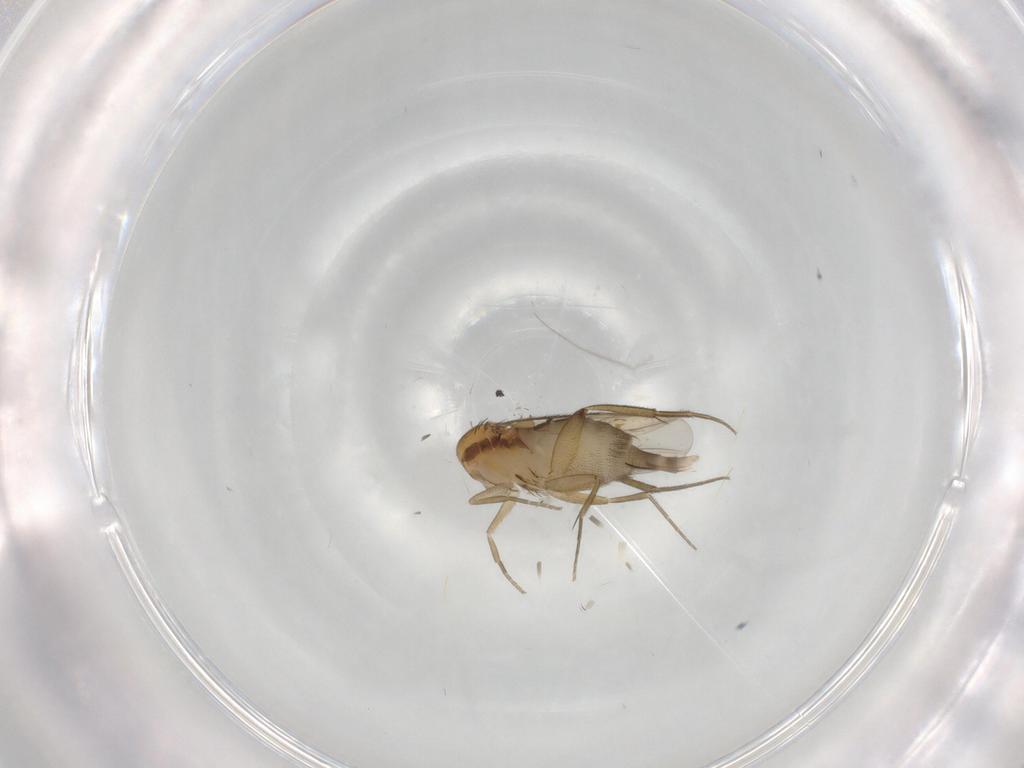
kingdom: Animalia
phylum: Arthropoda
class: Insecta
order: Diptera
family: Phoridae
